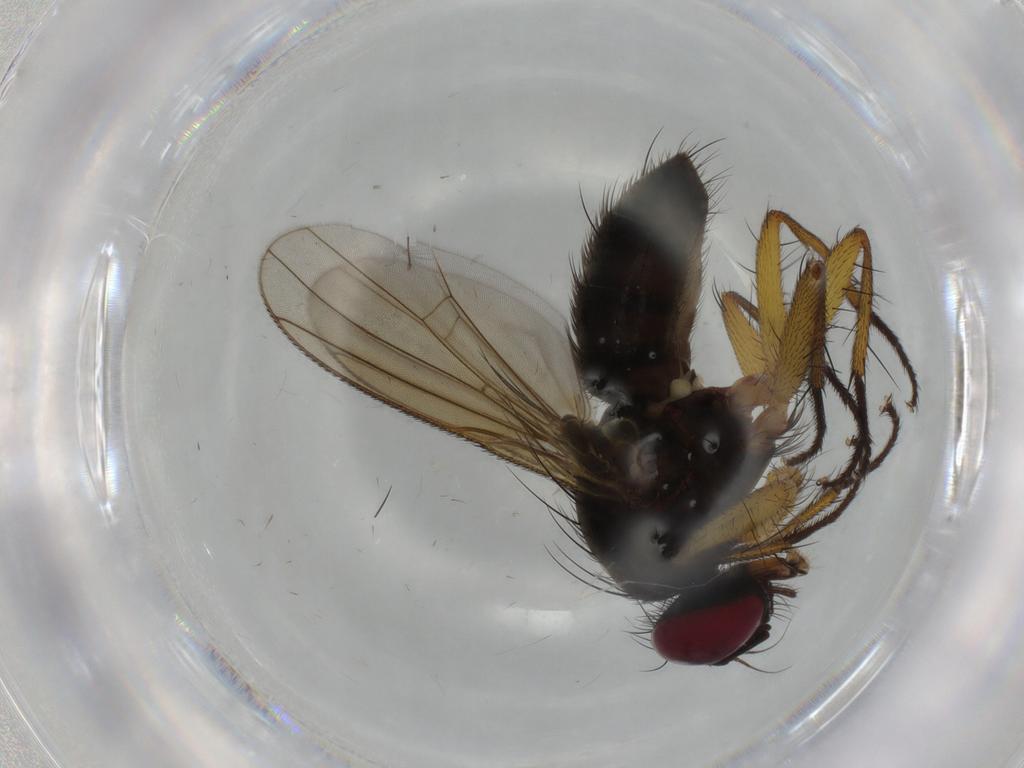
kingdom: Animalia
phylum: Arthropoda
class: Insecta
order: Diptera
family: Muscidae
